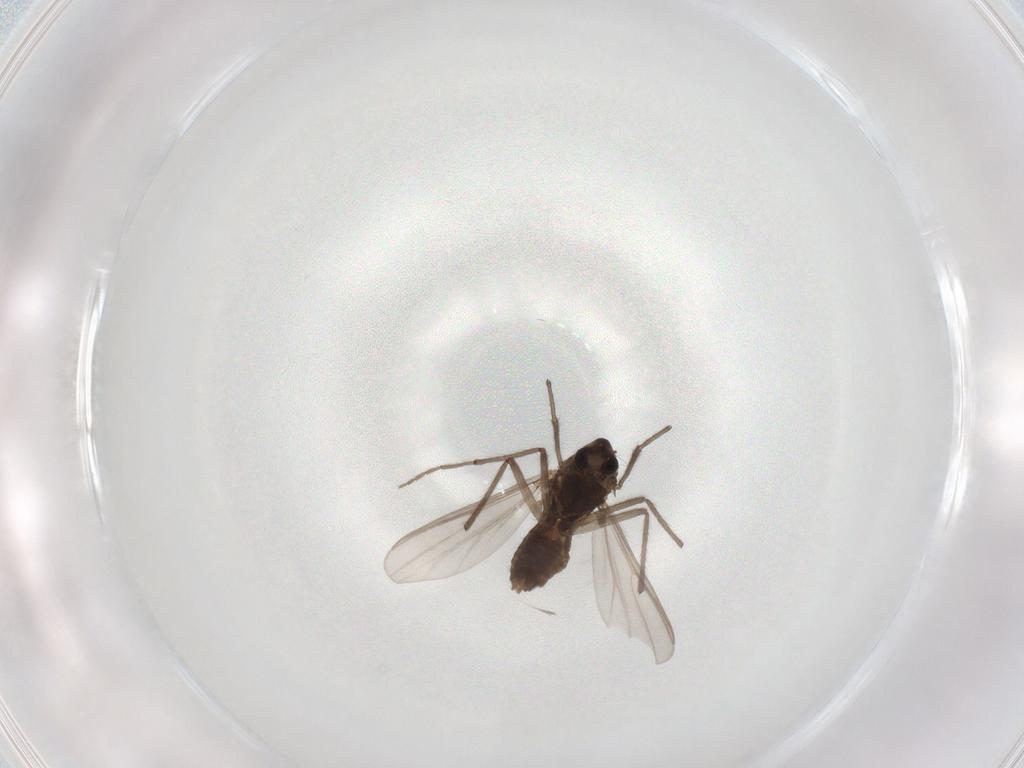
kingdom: Animalia
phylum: Arthropoda
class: Insecta
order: Diptera
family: Chironomidae
